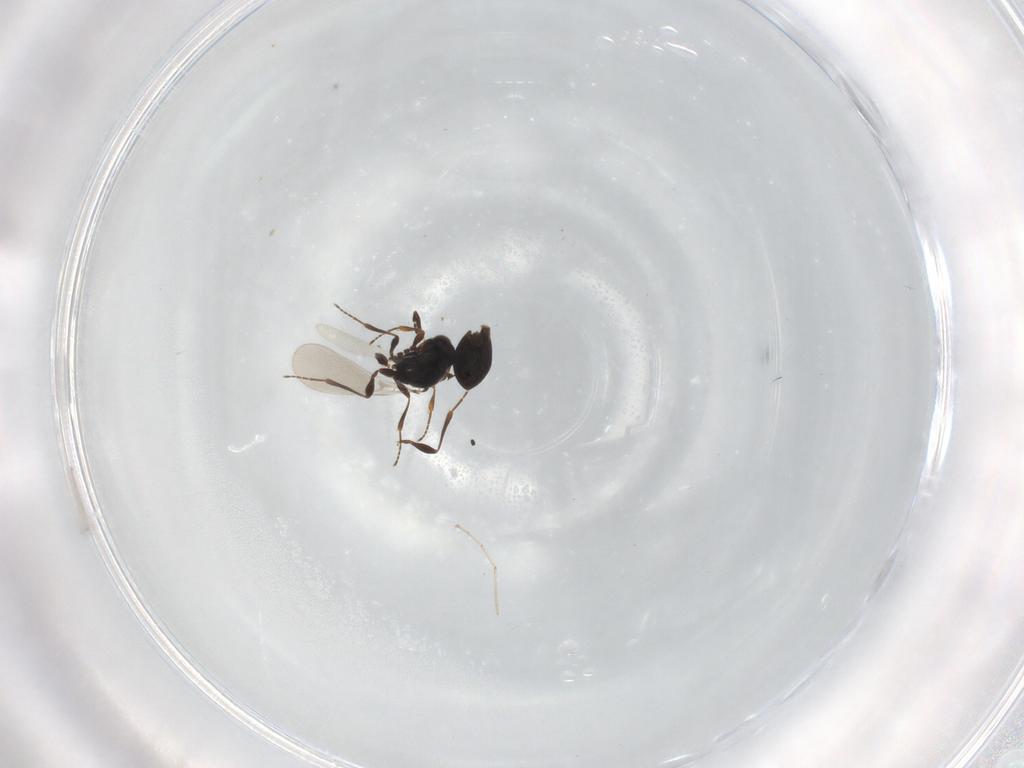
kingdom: Animalia
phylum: Arthropoda
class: Insecta
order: Hymenoptera
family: Platygastridae
